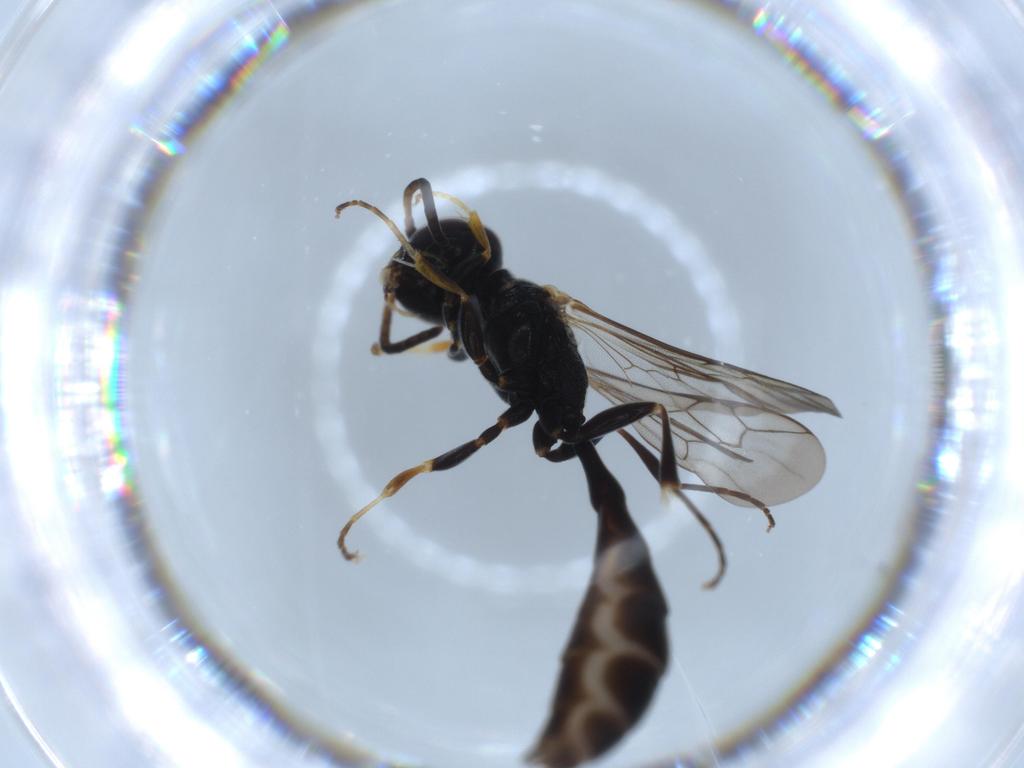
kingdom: Animalia
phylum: Arthropoda
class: Insecta
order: Hymenoptera
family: Crabronidae
